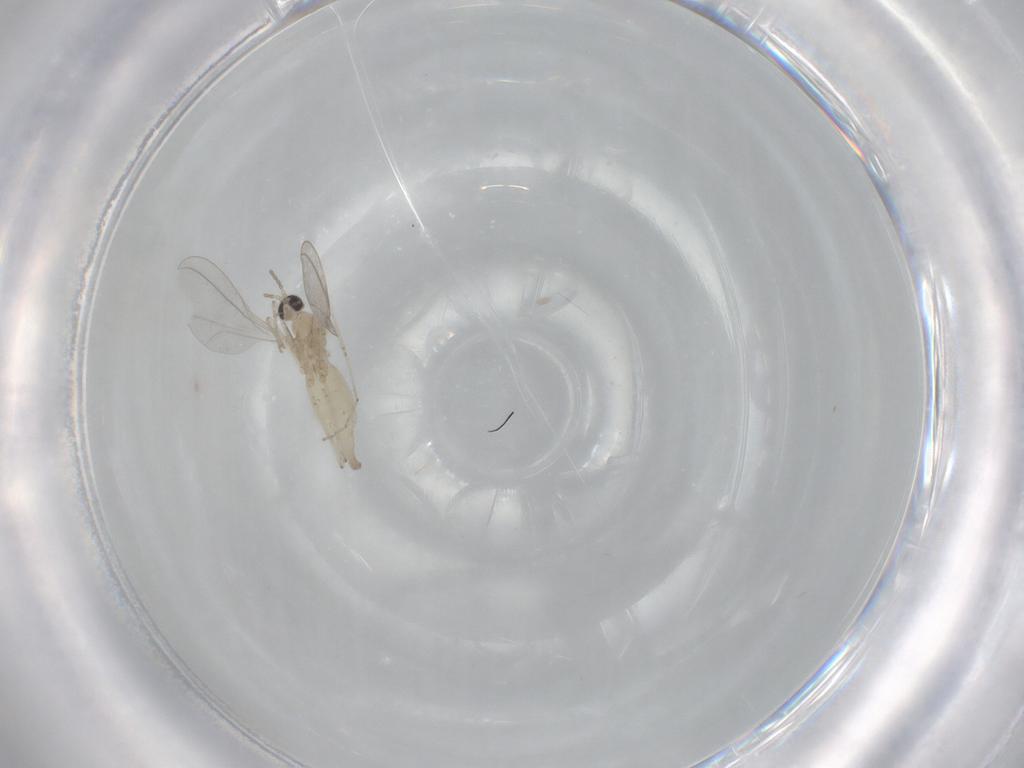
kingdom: Animalia
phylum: Arthropoda
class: Insecta
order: Diptera
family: Cecidomyiidae
